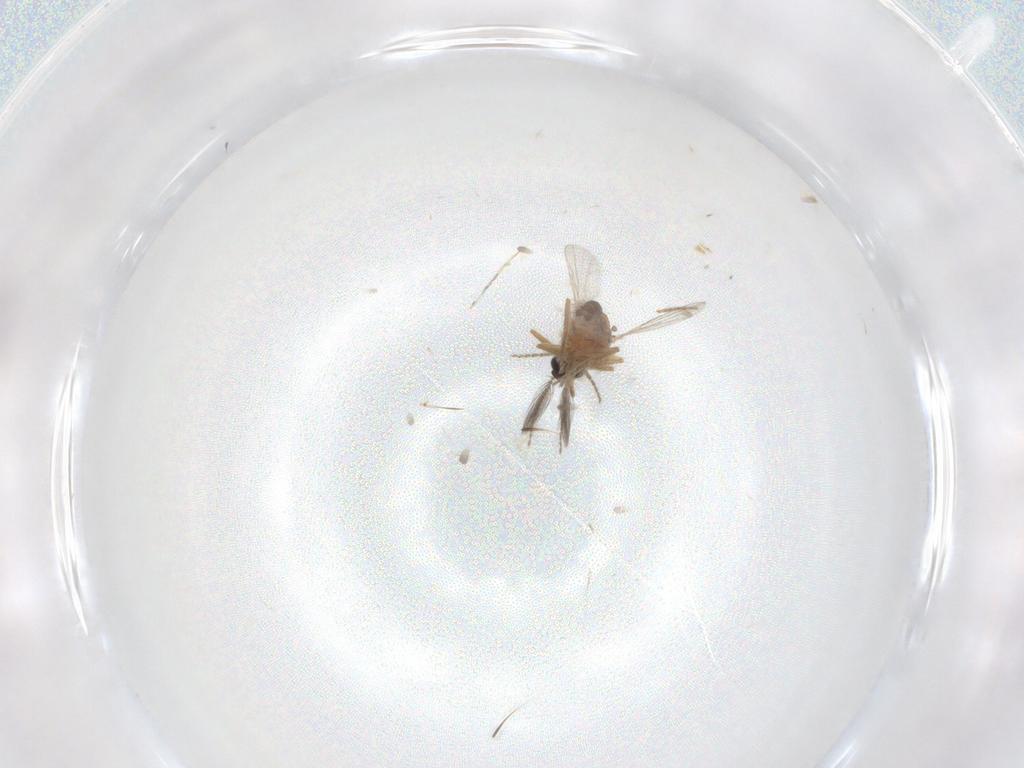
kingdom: Animalia
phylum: Arthropoda
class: Insecta
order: Diptera
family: Ceratopogonidae
